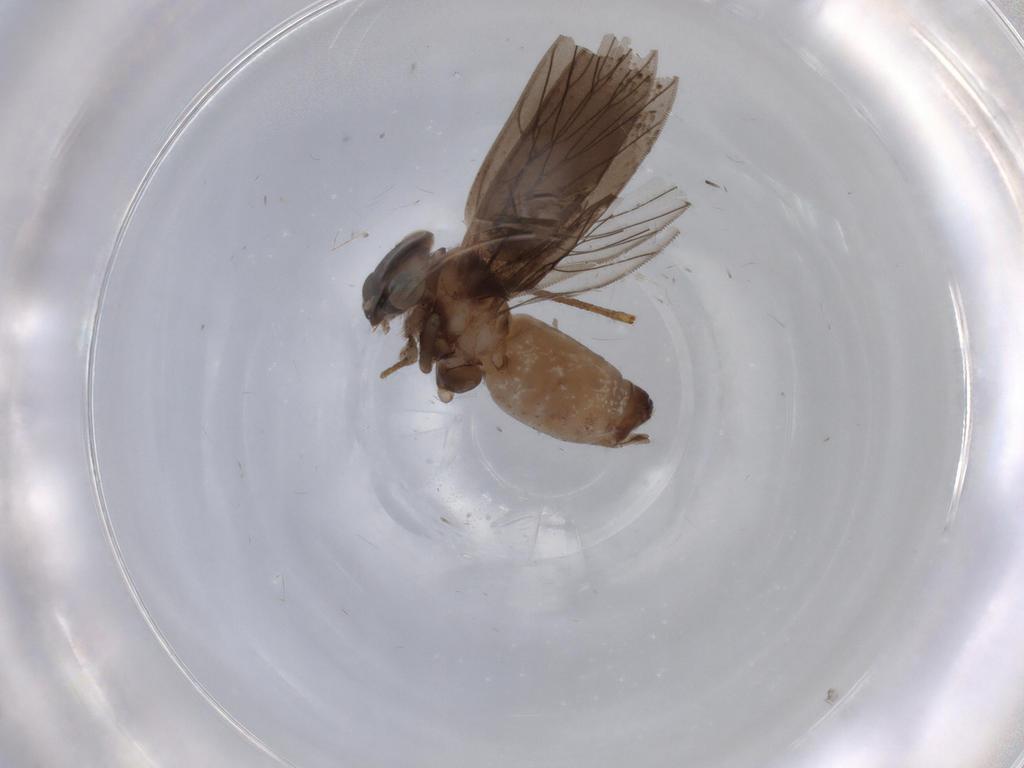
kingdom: Animalia
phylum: Arthropoda
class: Insecta
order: Psocodea
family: Lepidopsocidae
